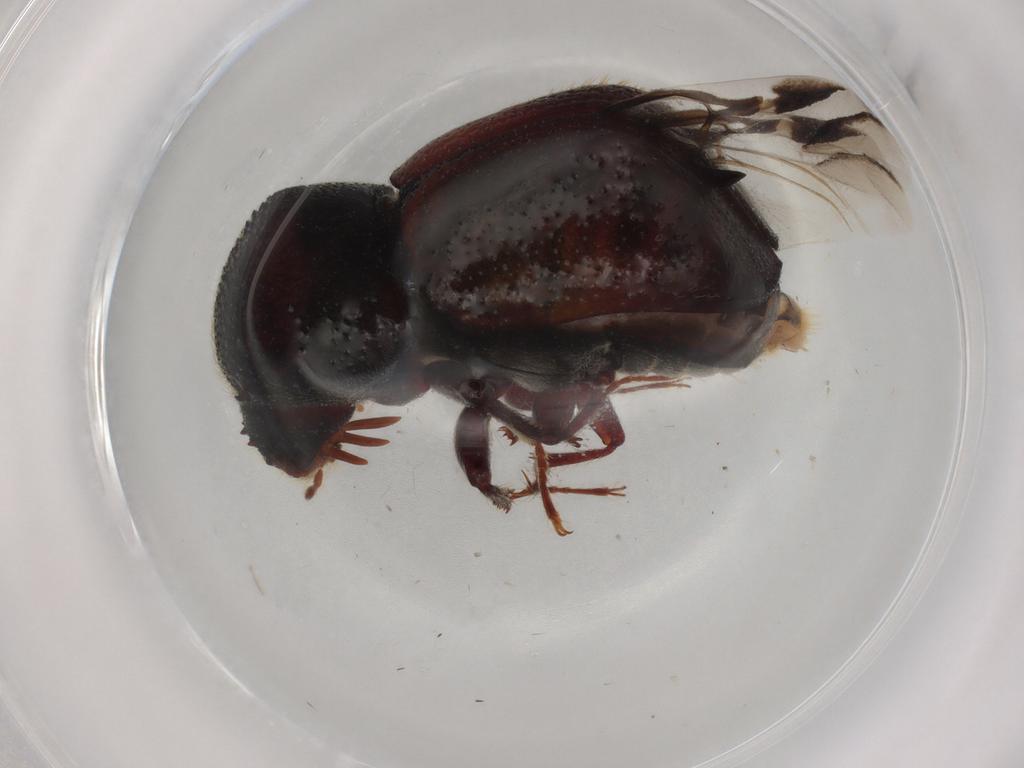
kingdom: Animalia
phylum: Arthropoda
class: Insecta
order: Coleoptera
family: Bostrichidae
